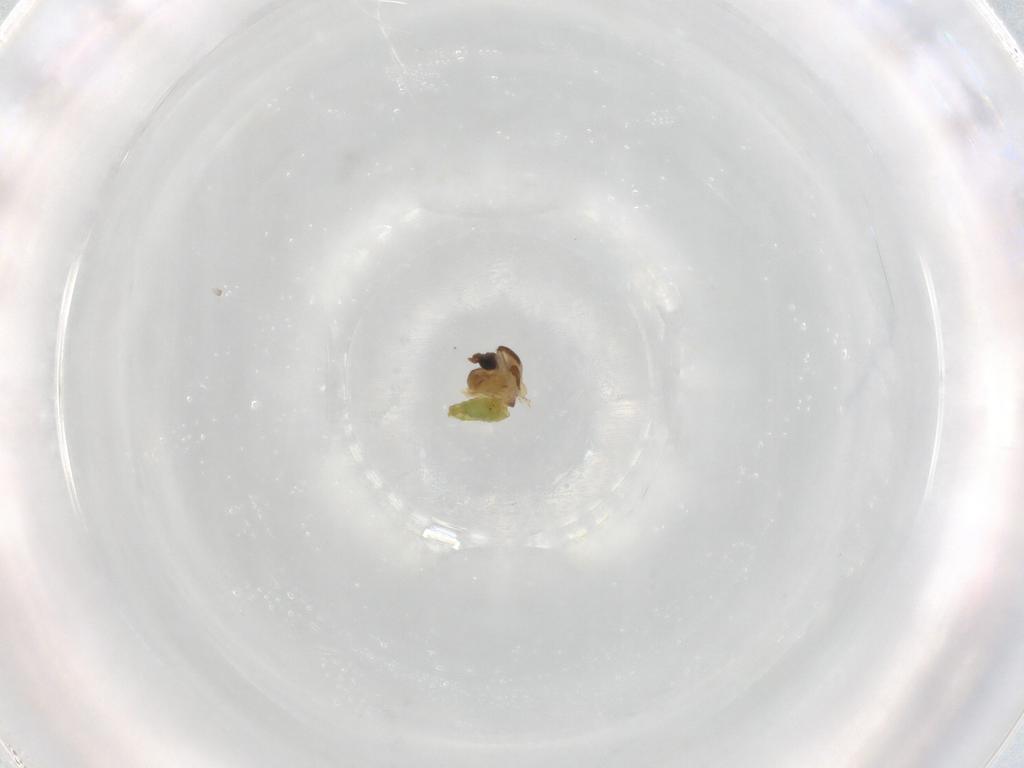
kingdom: Animalia
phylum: Arthropoda
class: Insecta
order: Diptera
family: Chironomidae
